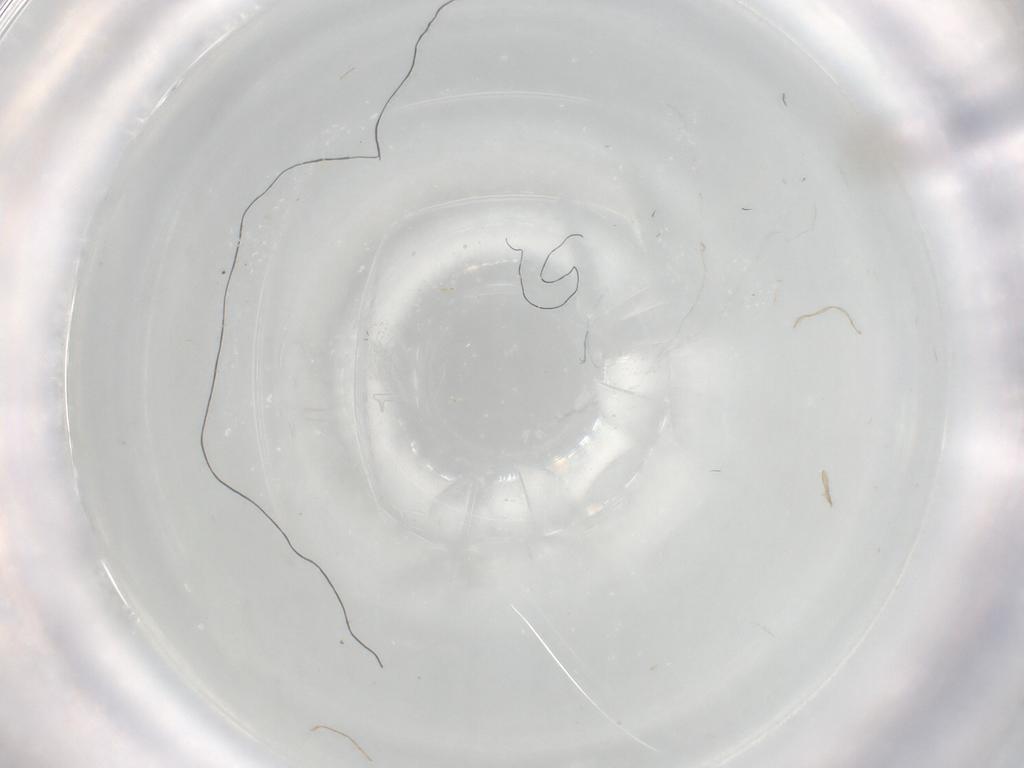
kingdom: Animalia
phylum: Arthropoda
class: Insecta
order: Diptera
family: Cecidomyiidae
